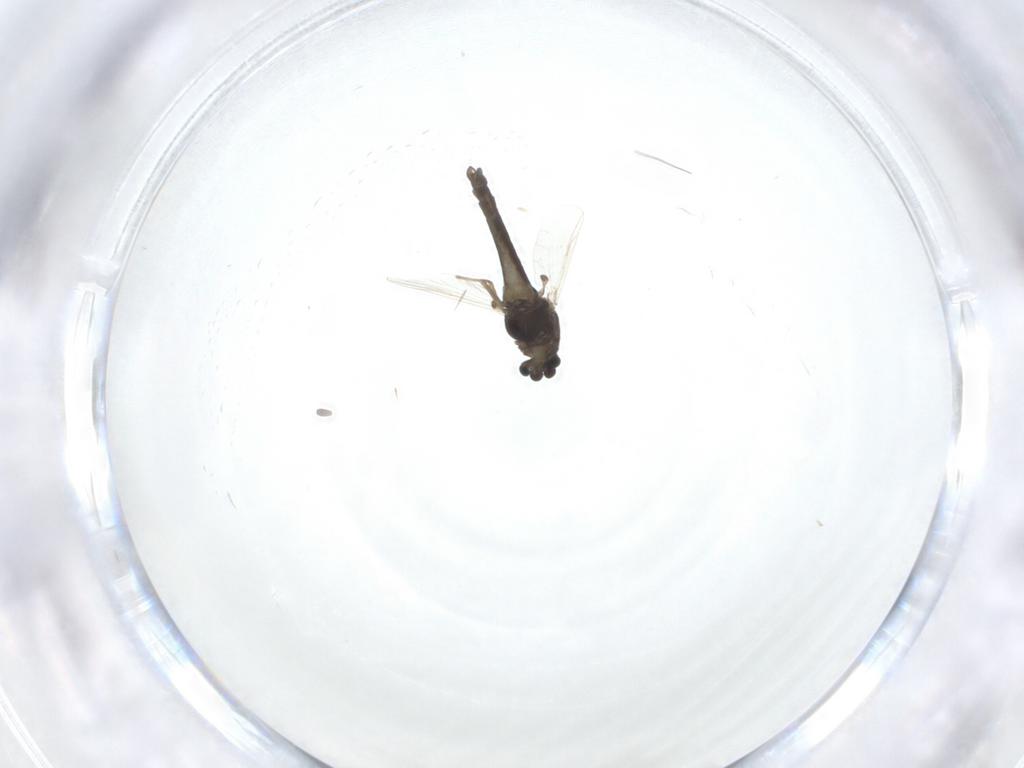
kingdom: Animalia
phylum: Arthropoda
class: Insecta
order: Diptera
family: Chironomidae
